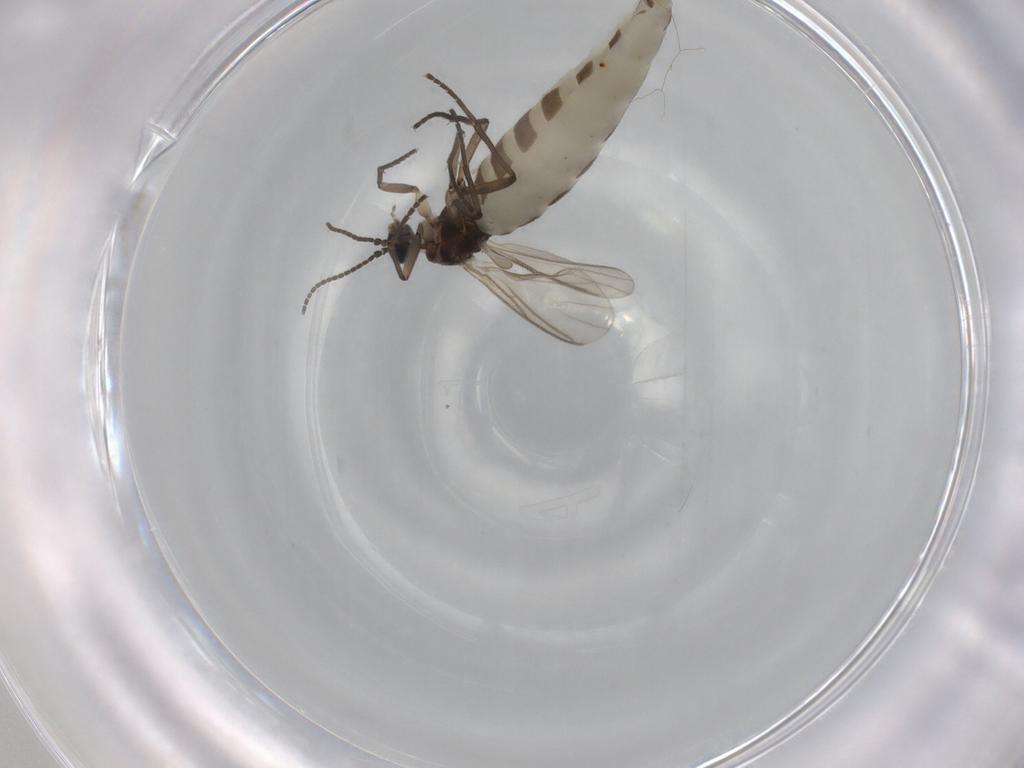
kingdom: Animalia
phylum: Arthropoda
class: Insecta
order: Diptera
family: Sciaridae
